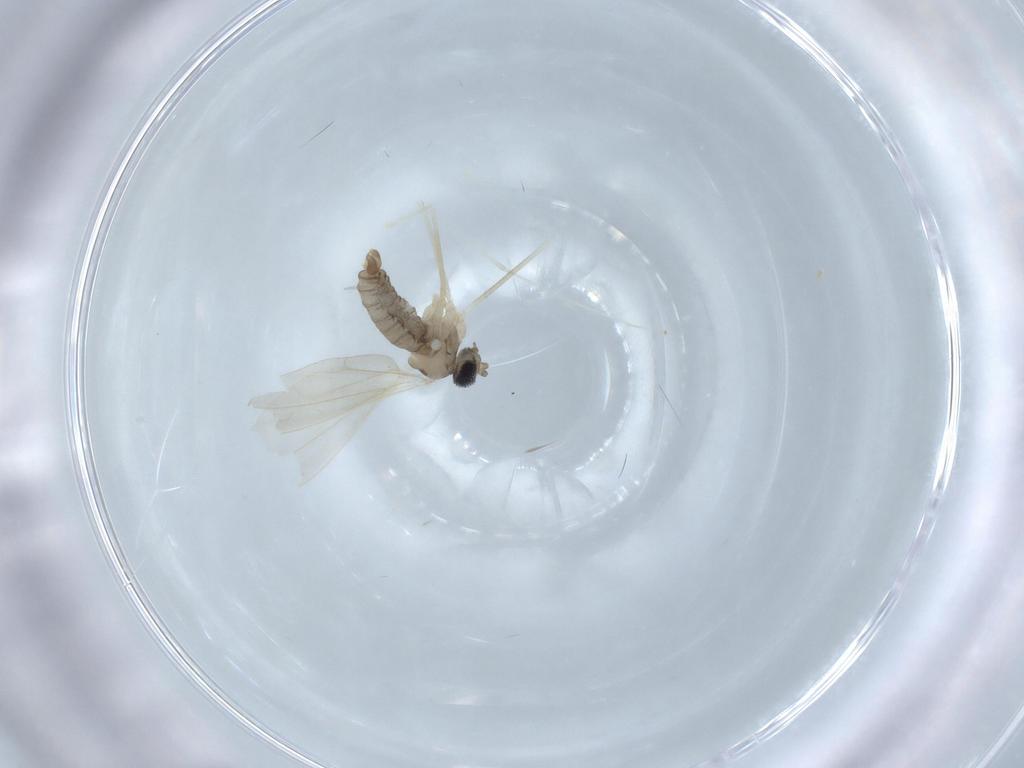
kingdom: Animalia
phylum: Arthropoda
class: Insecta
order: Diptera
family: Cecidomyiidae
